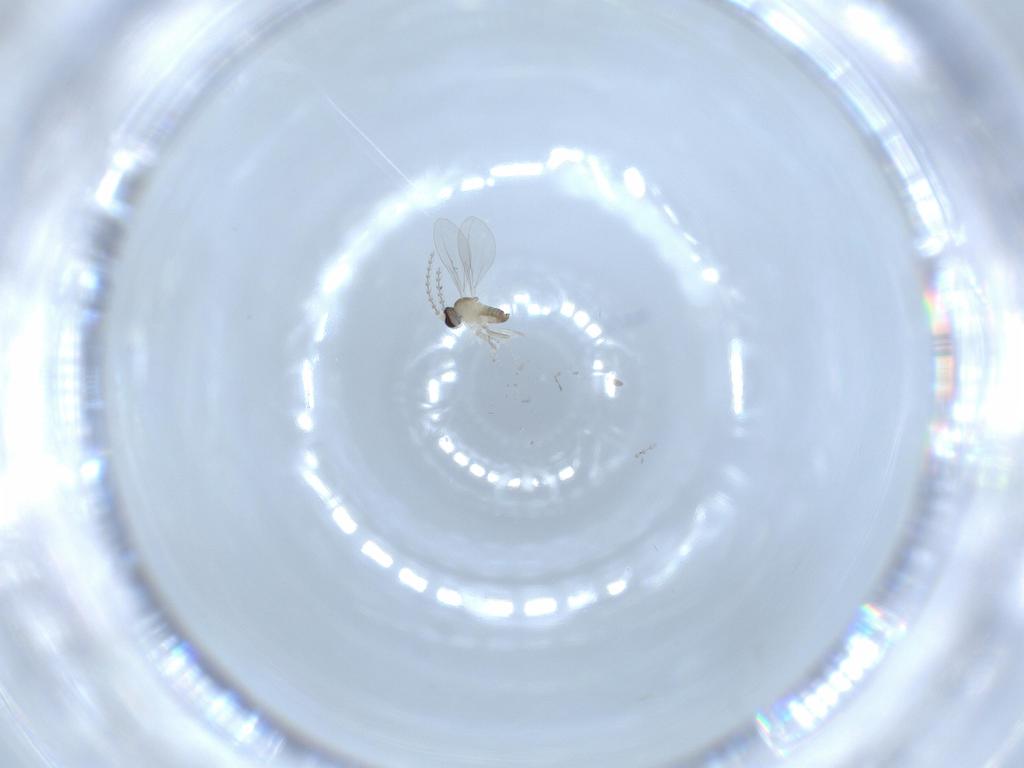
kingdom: Animalia
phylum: Arthropoda
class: Insecta
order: Diptera
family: Cecidomyiidae
